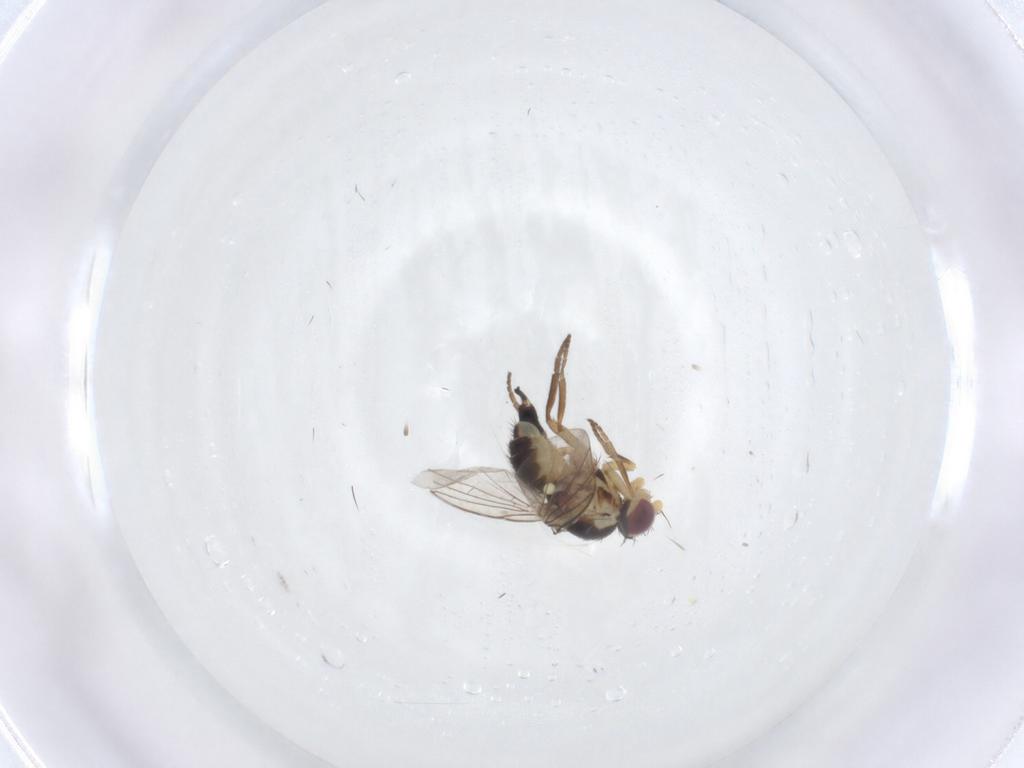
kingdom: Animalia
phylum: Arthropoda
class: Insecta
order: Diptera
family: Agromyzidae
